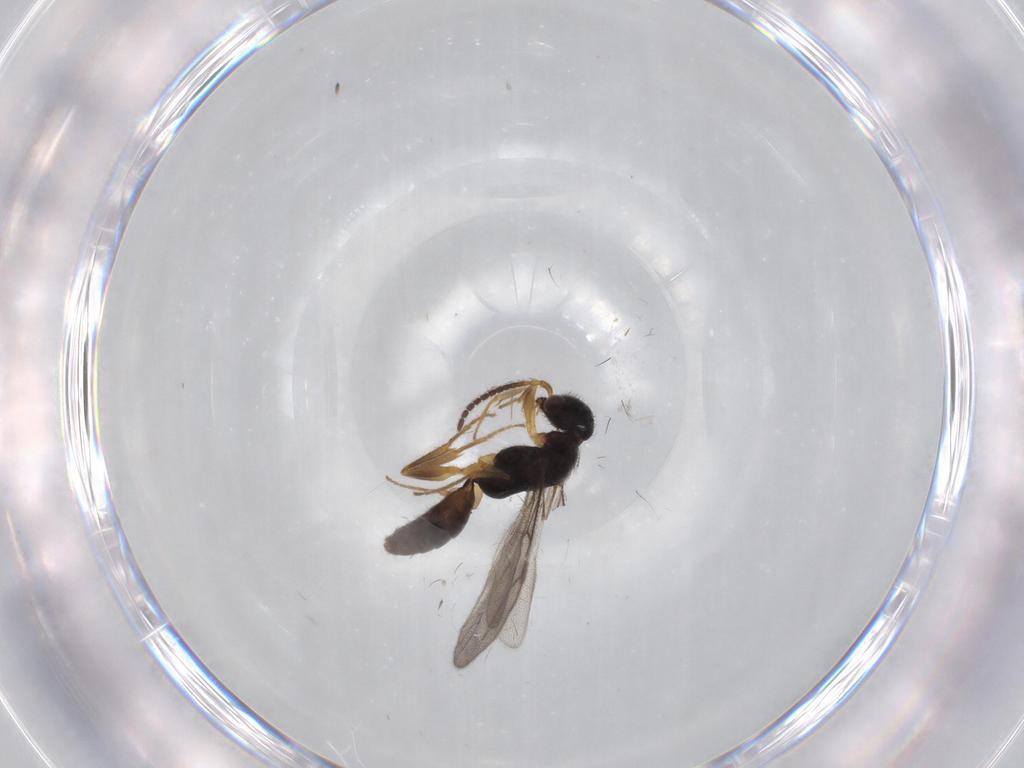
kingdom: Animalia
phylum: Arthropoda
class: Insecta
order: Hymenoptera
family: Bethylidae
